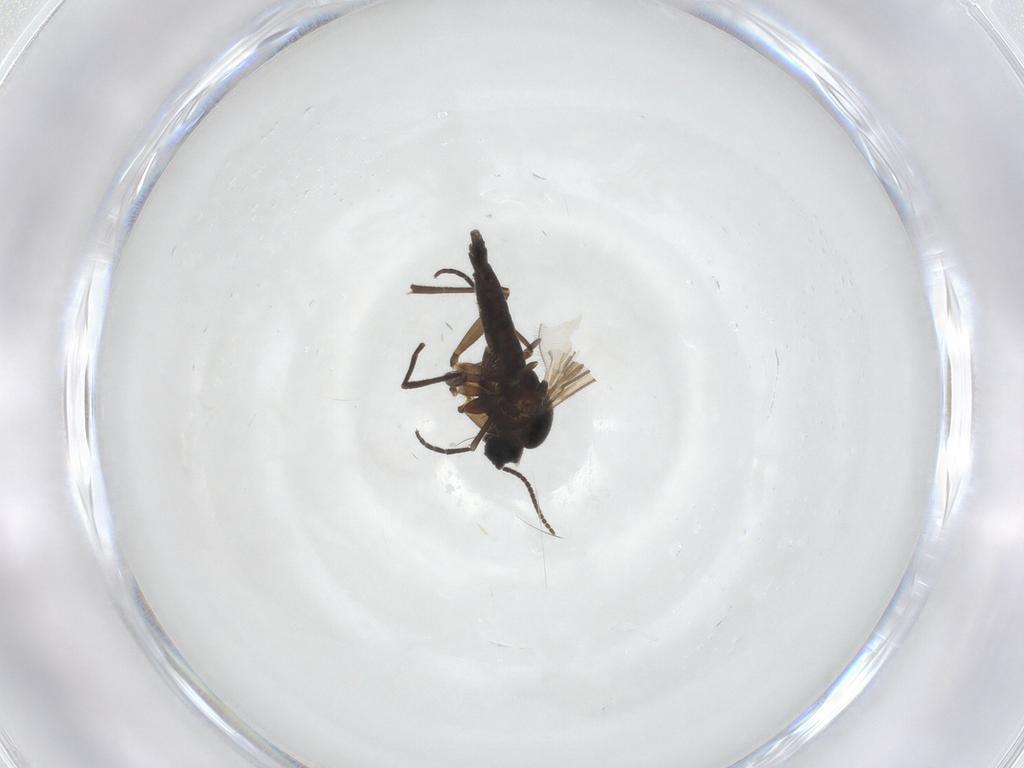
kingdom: Animalia
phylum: Arthropoda
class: Insecta
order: Diptera
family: Sciaridae
